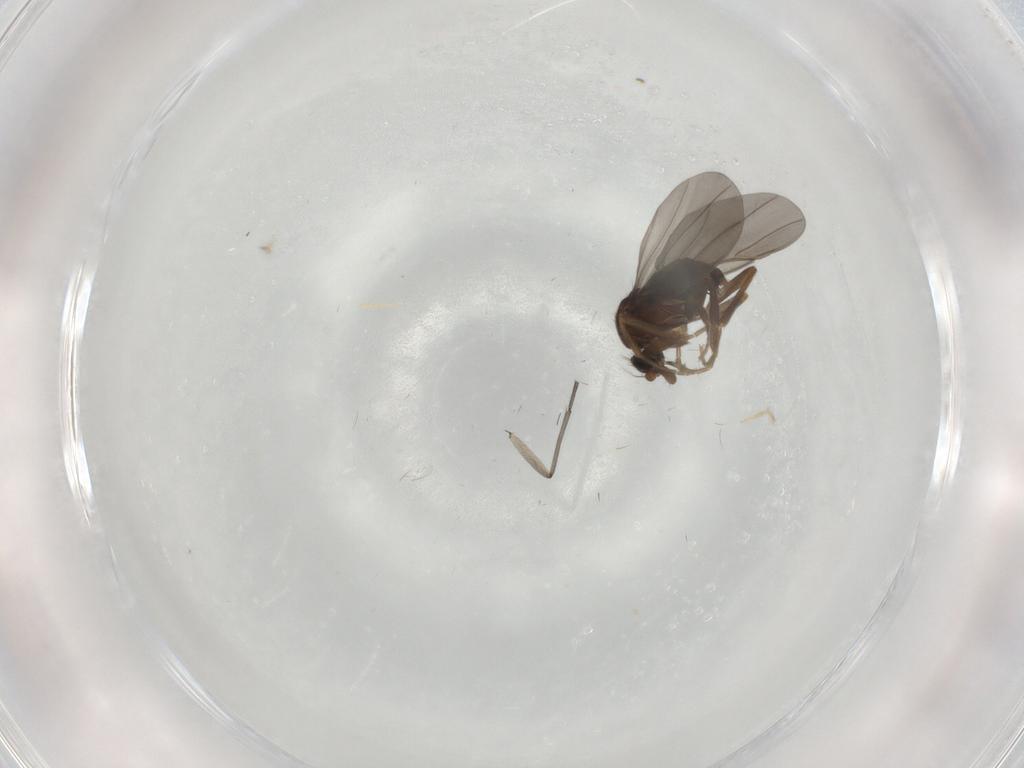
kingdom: Animalia
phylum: Arthropoda
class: Insecta
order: Diptera
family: Phoridae
